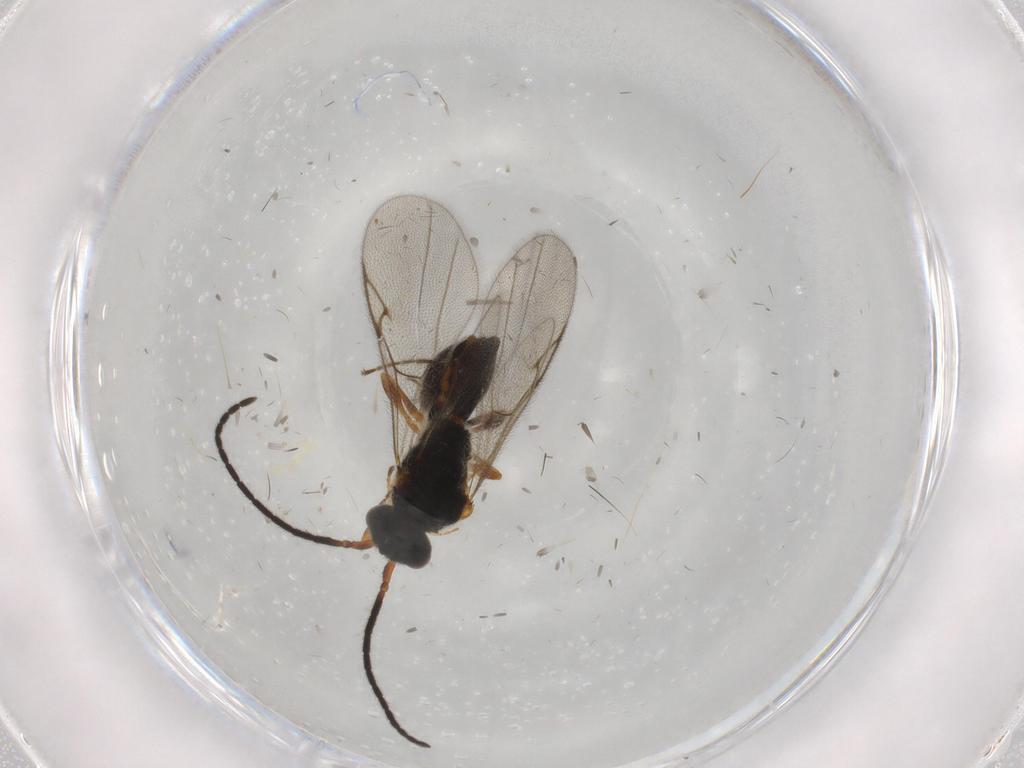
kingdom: Animalia
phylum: Arthropoda
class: Insecta
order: Hymenoptera
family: Diapriidae
